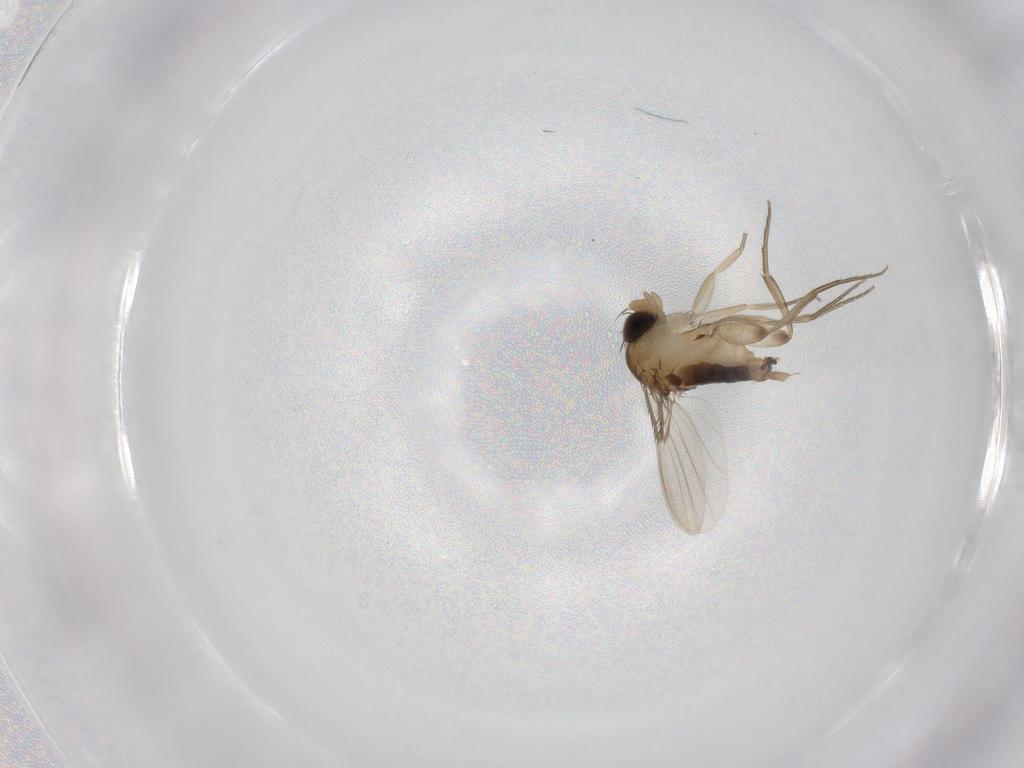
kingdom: Animalia
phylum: Arthropoda
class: Insecta
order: Diptera
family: Phoridae
